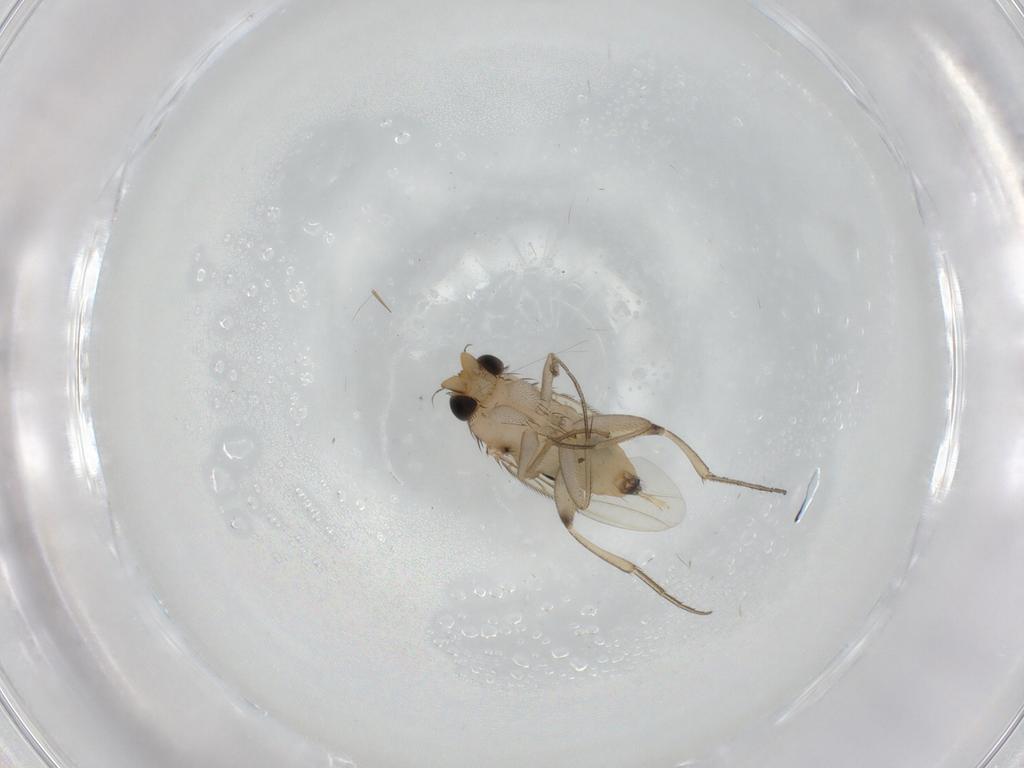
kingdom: Animalia
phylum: Arthropoda
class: Insecta
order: Diptera
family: Phoridae
